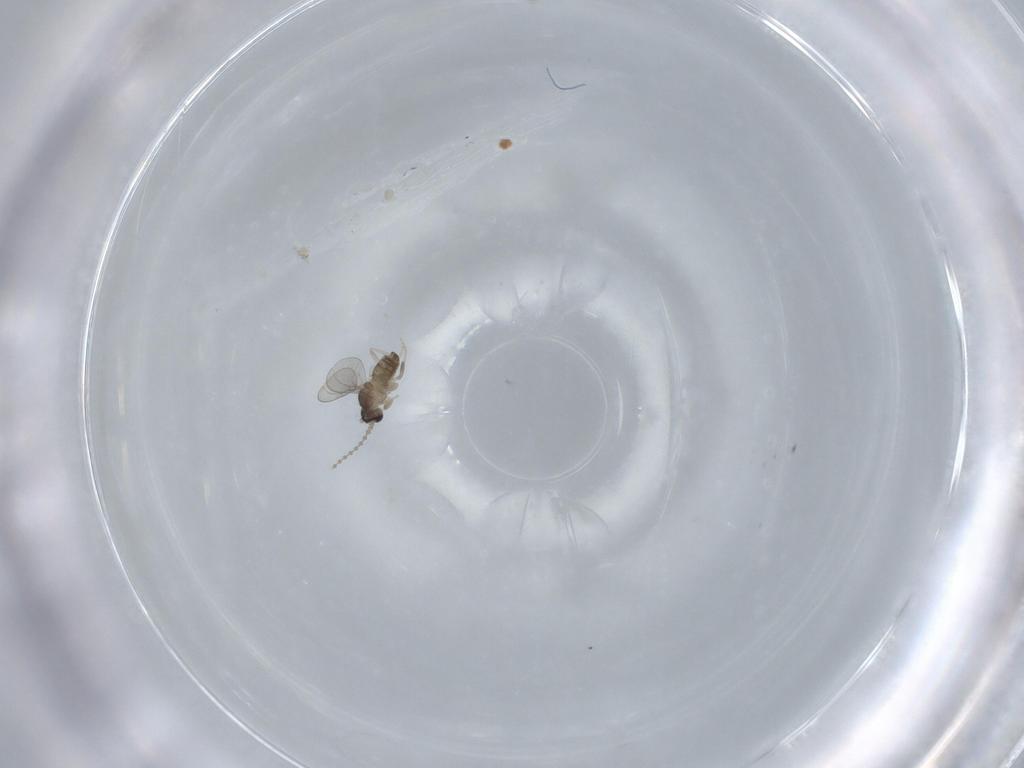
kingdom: Animalia
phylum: Arthropoda
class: Insecta
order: Diptera
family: Cecidomyiidae
